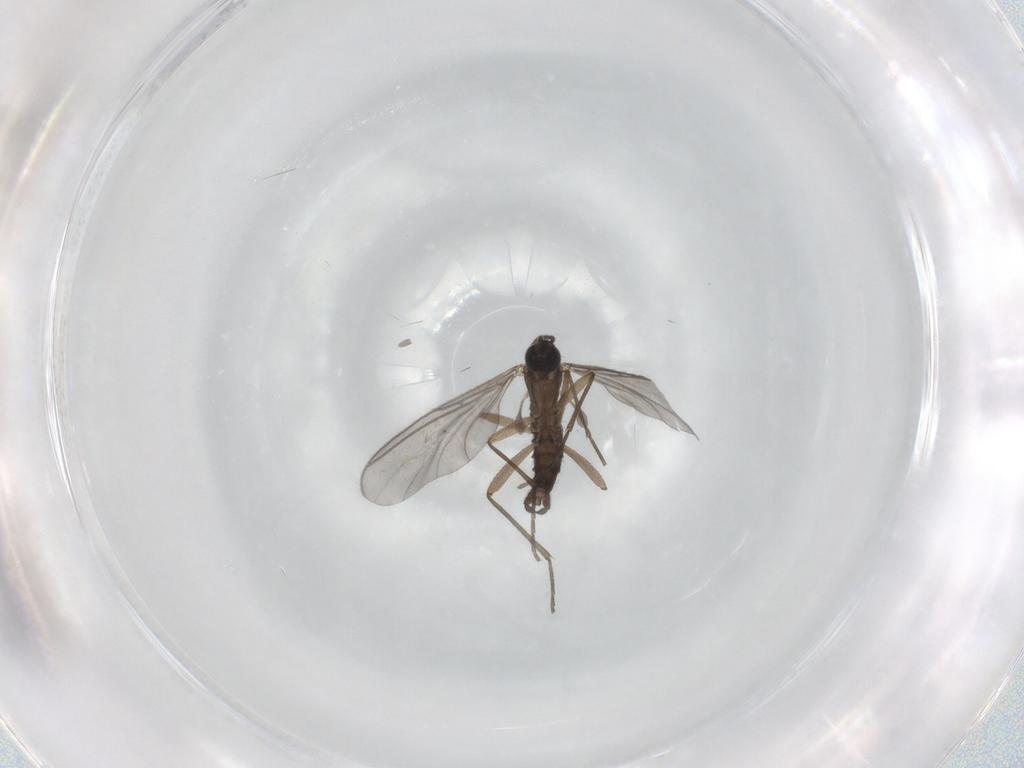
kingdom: Animalia
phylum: Arthropoda
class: Insecta
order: Diptera
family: Sciaridae
